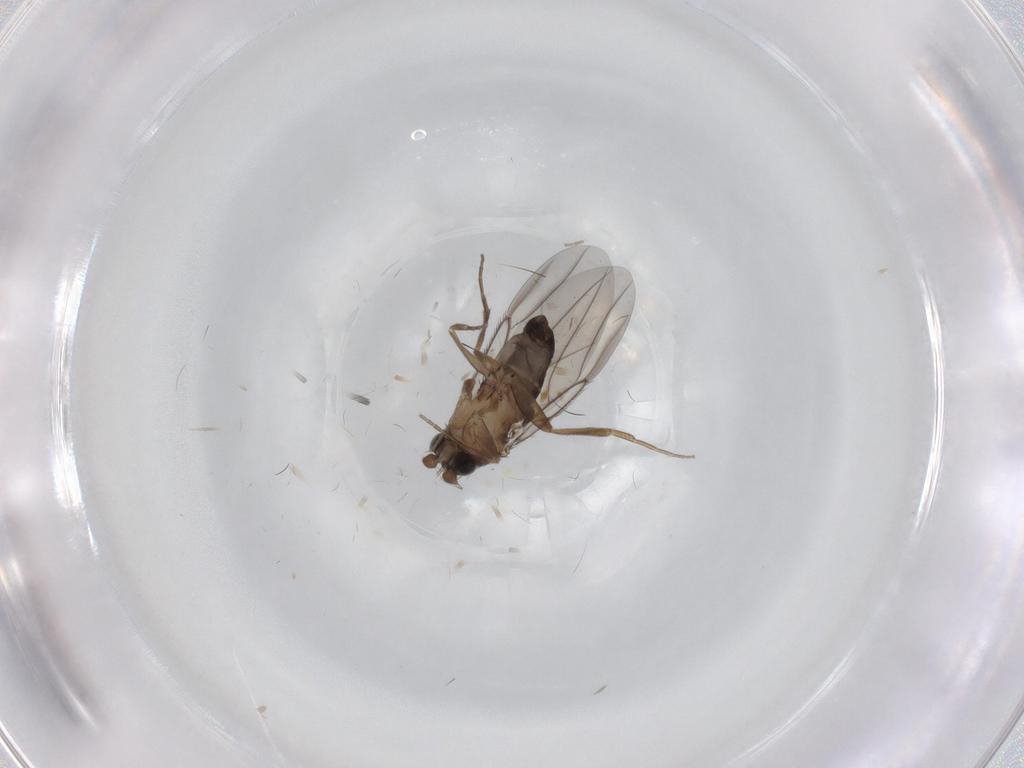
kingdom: Animalia
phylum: Arthropoda
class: Insecta
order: Diptera
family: Phoridae
